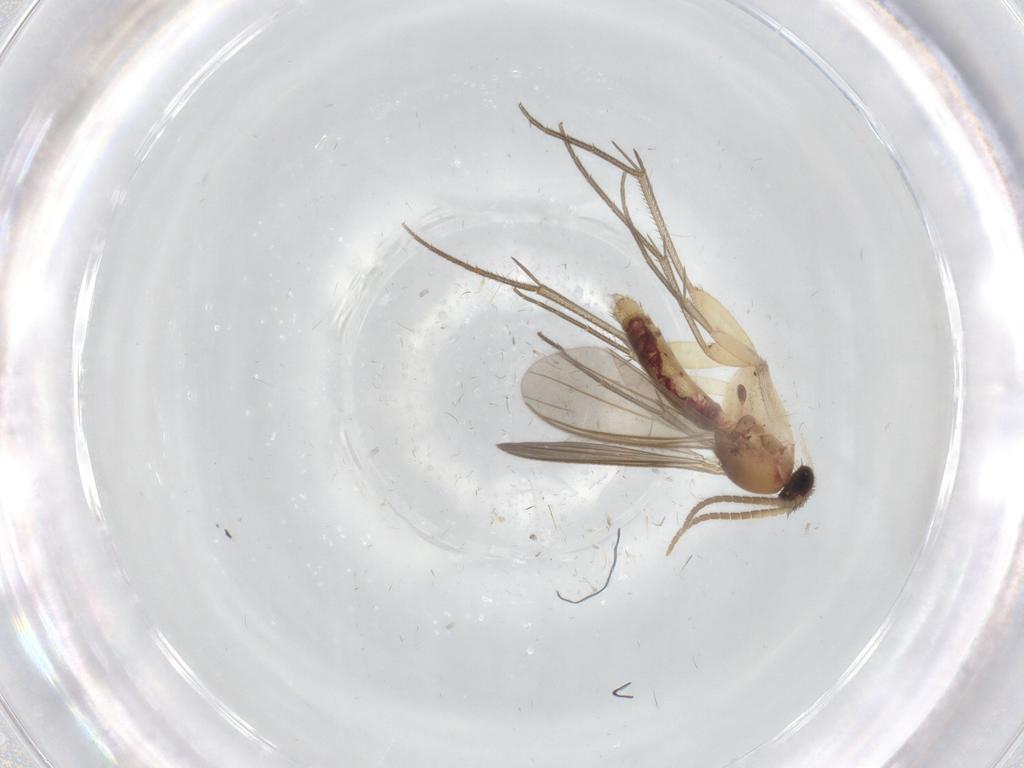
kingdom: Animalia
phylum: Arthropoda
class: Insecta
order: Diptera
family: Mycetophilidae
